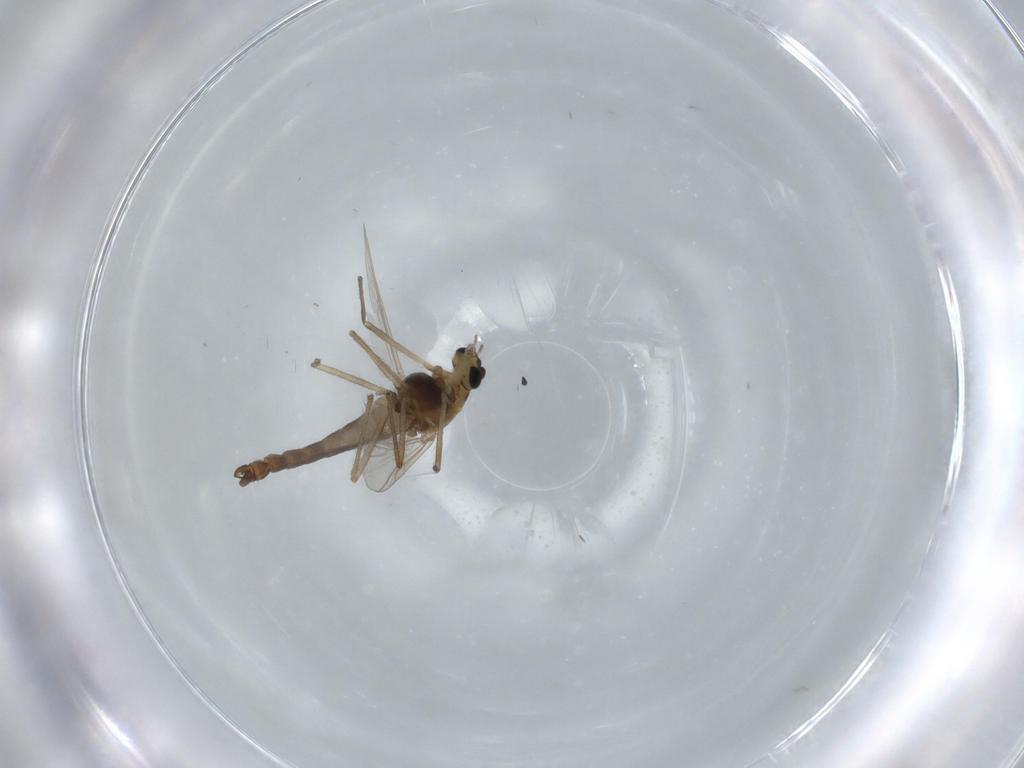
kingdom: Animalia
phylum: Arthropoda
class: Insecta
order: Diptera
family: Sphaeroceridae
